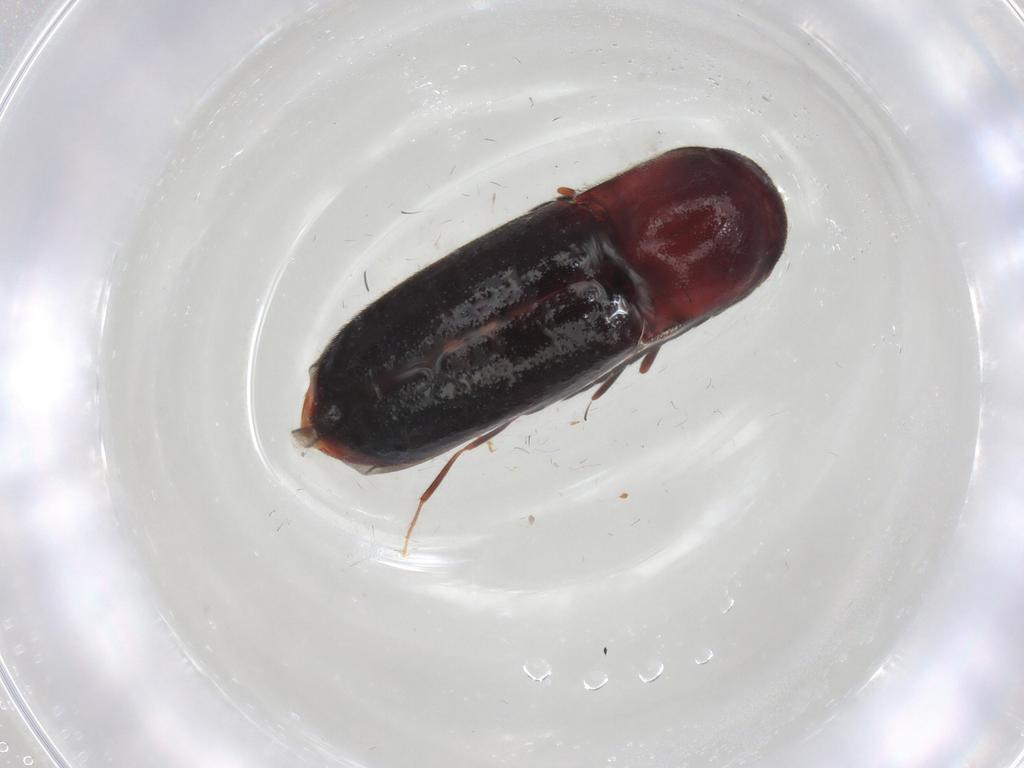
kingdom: Animalia
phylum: Arthropoda
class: Insecta
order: Coleoptera
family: Eucnemidae
